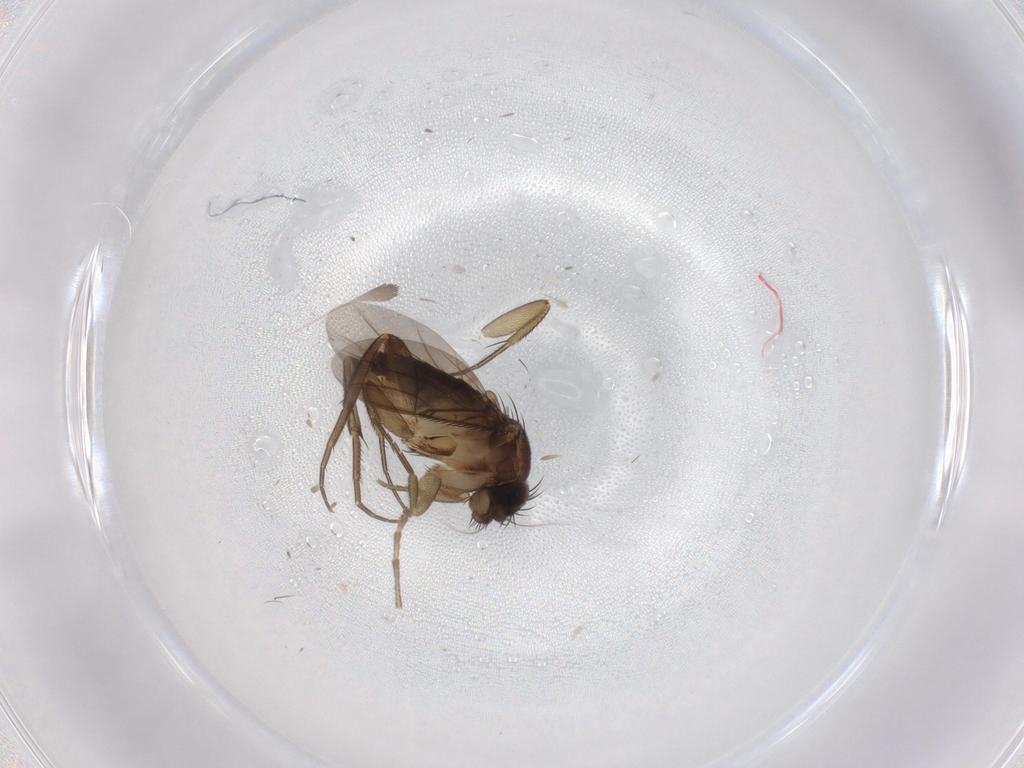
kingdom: Animalia
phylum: Arthropoda
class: Insecta
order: Diptera
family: Phoridae
